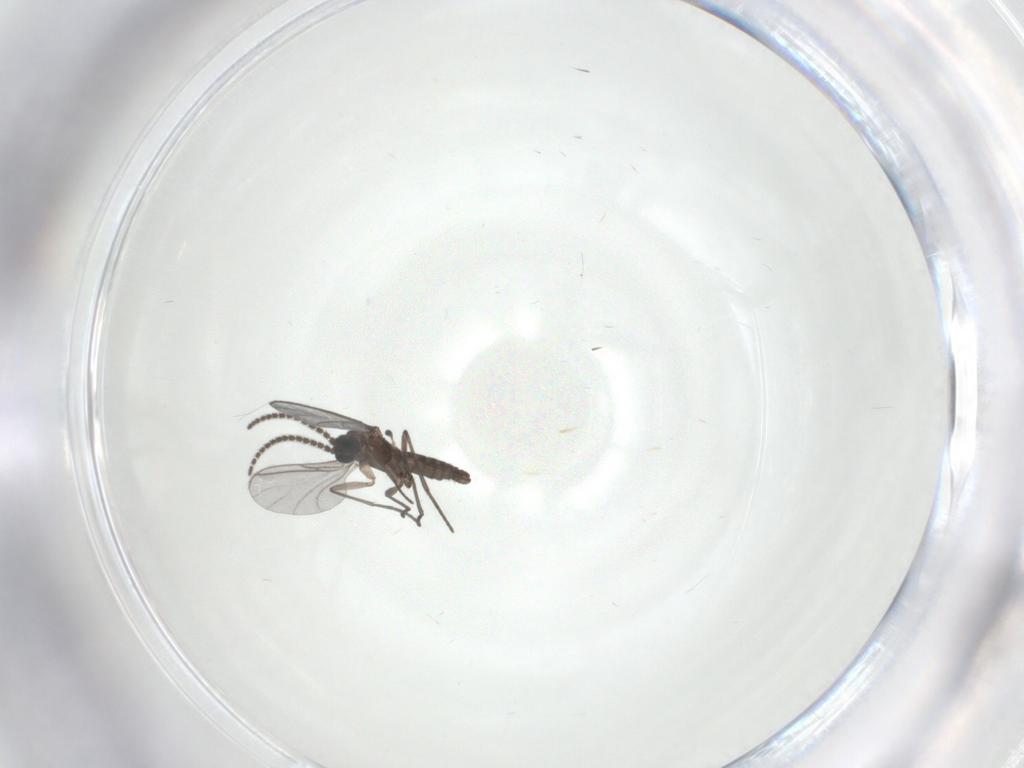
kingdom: Animalia
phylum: Arthropoda
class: Insecta
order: Diptera
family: Sciaridae
